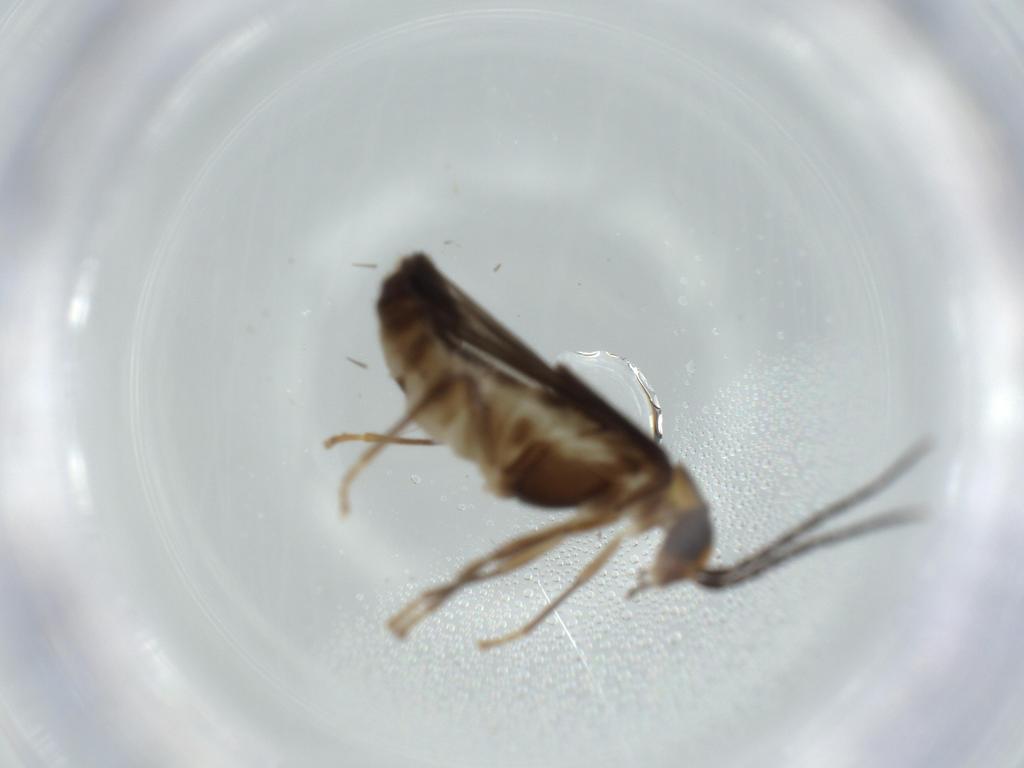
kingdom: Animalia
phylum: Arthropoda
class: Insecta
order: Coleoptera
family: Cantharidae
